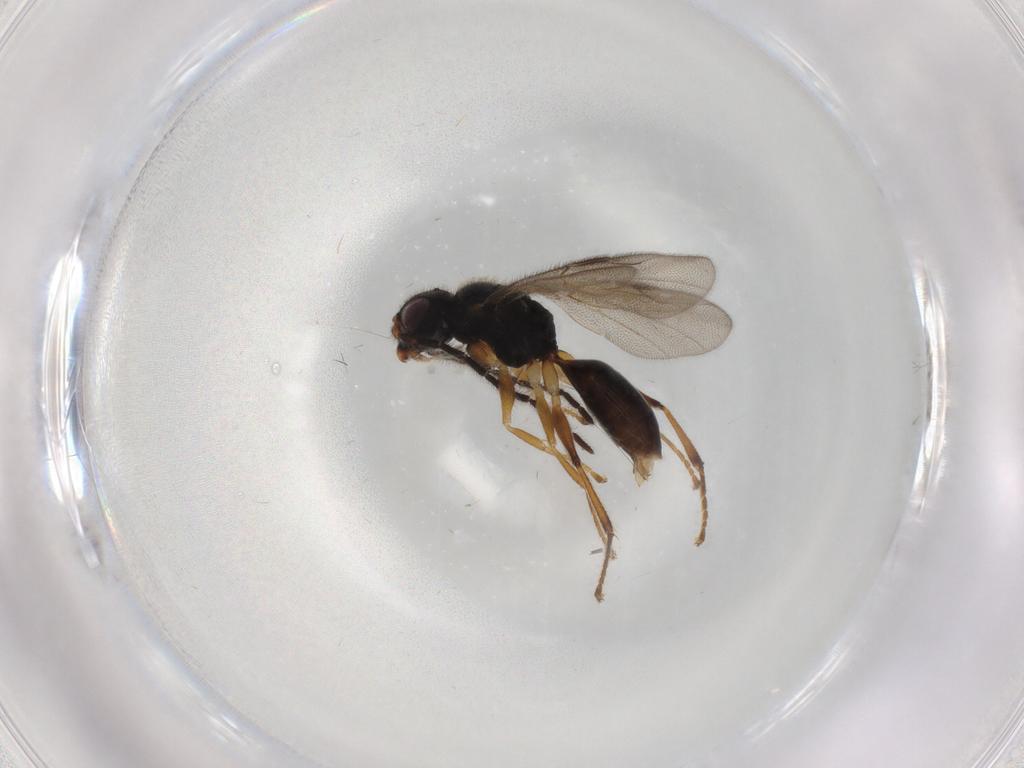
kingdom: Animalia
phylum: Arthropoda
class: Insecta
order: Hymenoptera
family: Dryinidae
